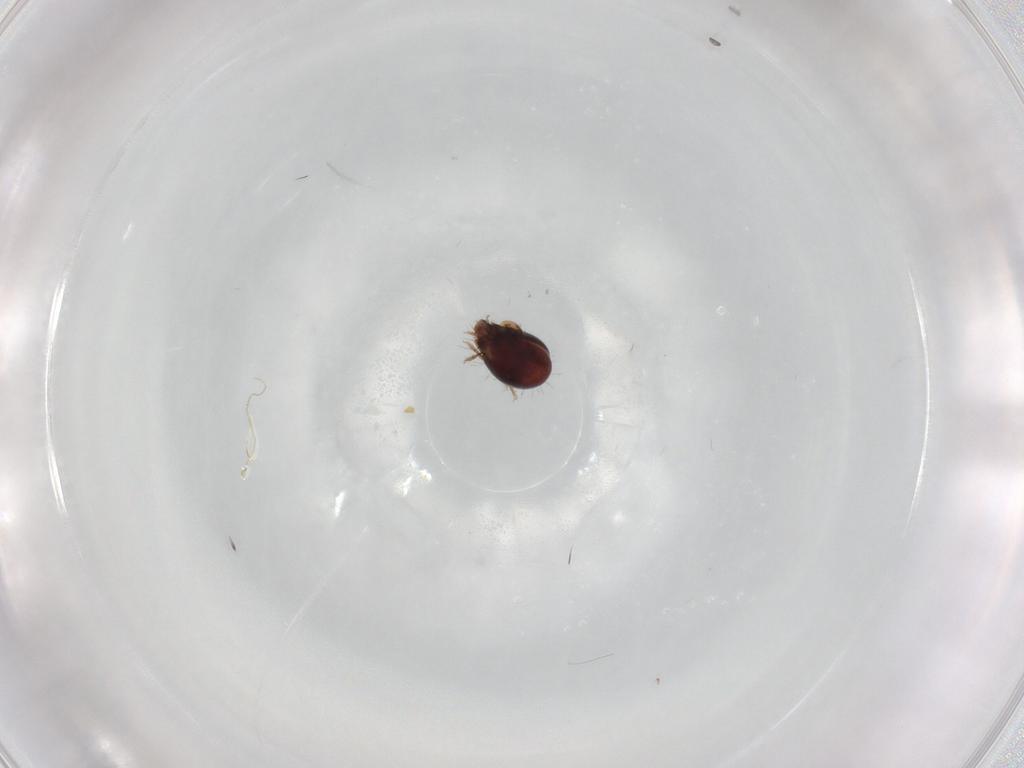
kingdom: Animalia
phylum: Arthropoda
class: Arachnida
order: Sarcoptiformes
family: Humerobatidae
